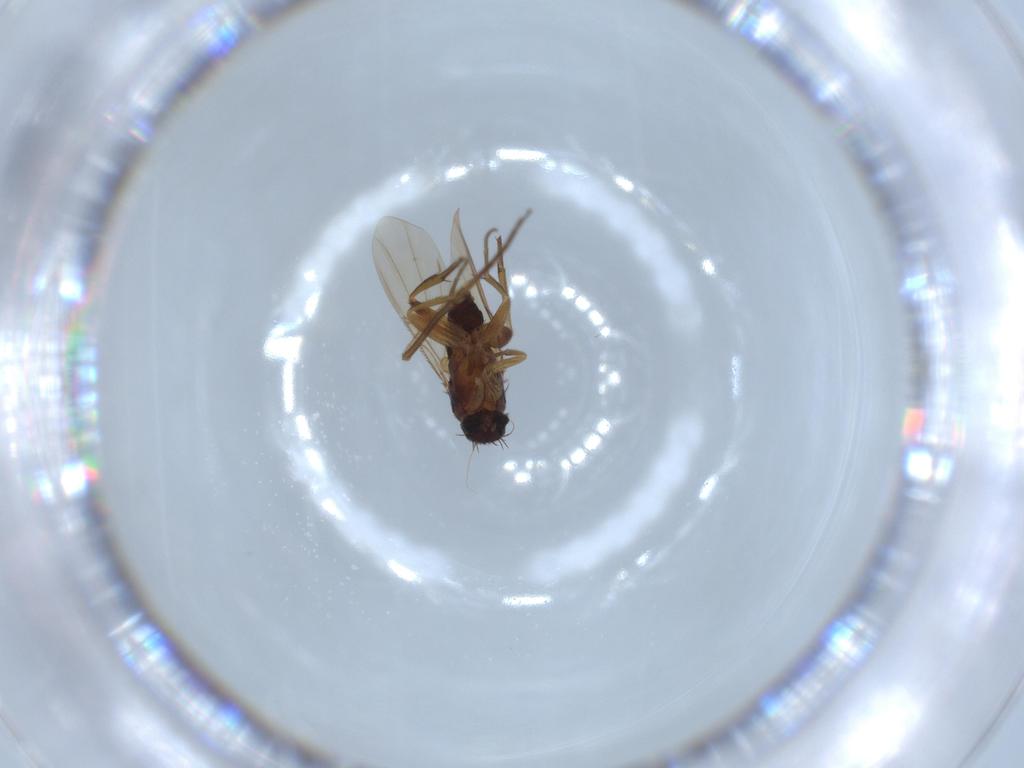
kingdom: Animalia
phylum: Arthropoda
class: Insecta
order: Diptera
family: Phoridae
